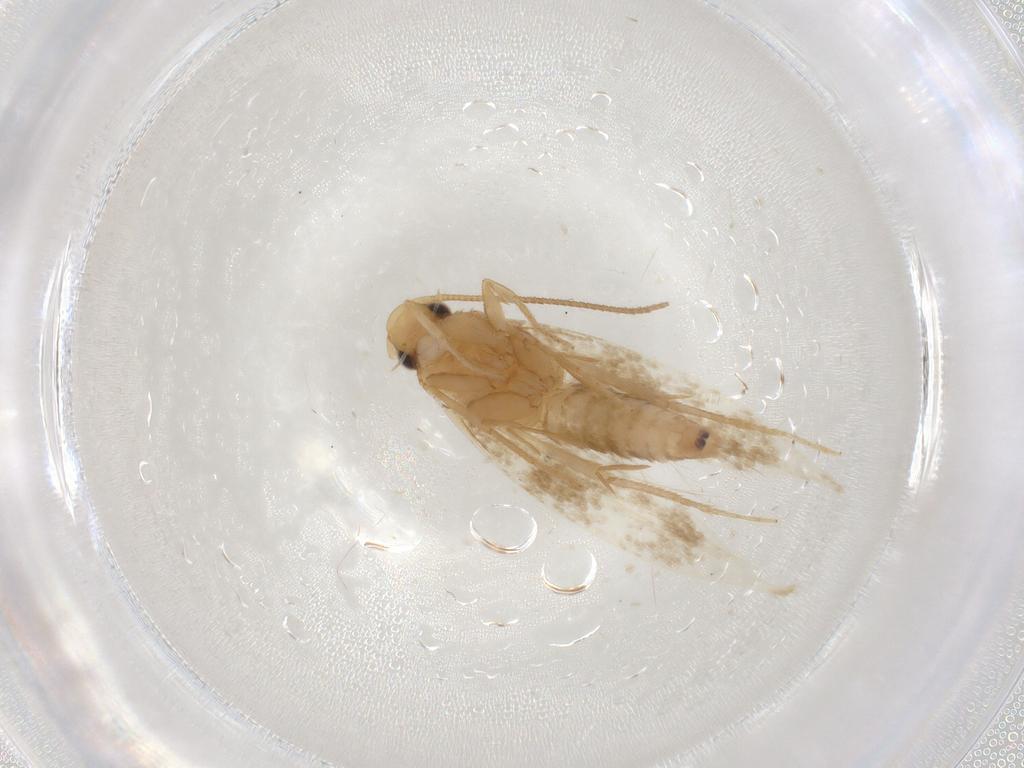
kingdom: Animalia
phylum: Arthropoda
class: Insecta
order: Lepidoptera
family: Tineidae
